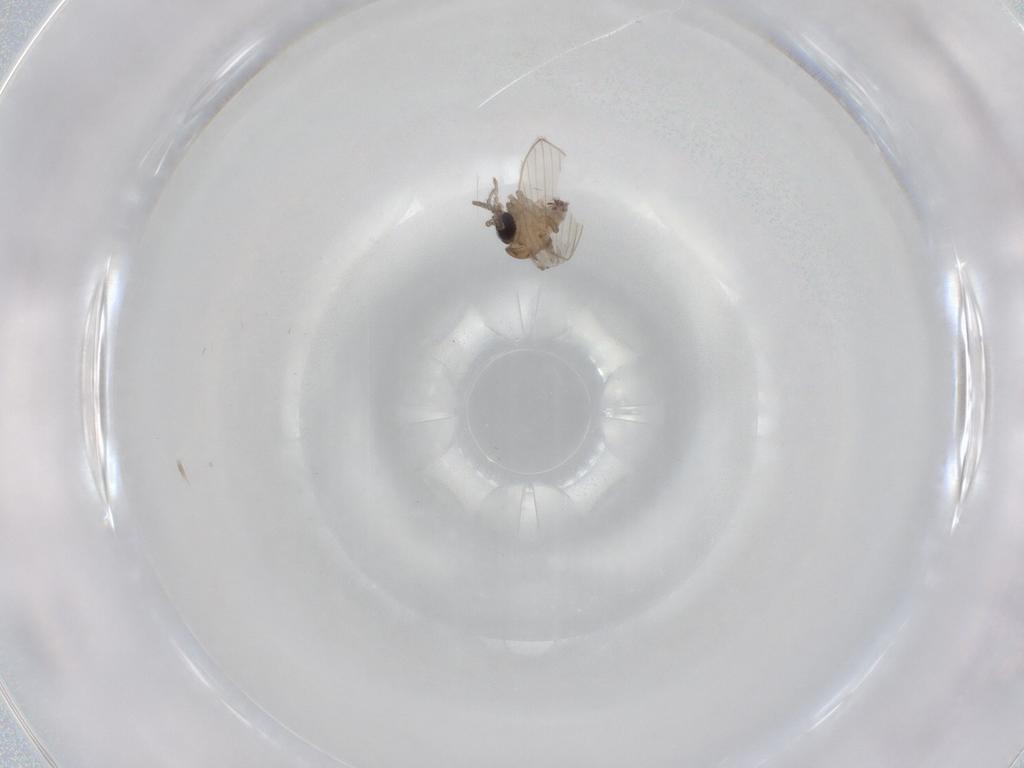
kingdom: Animalia
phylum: Arthropoda
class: Insecta
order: Diptera
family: Psychodidae
